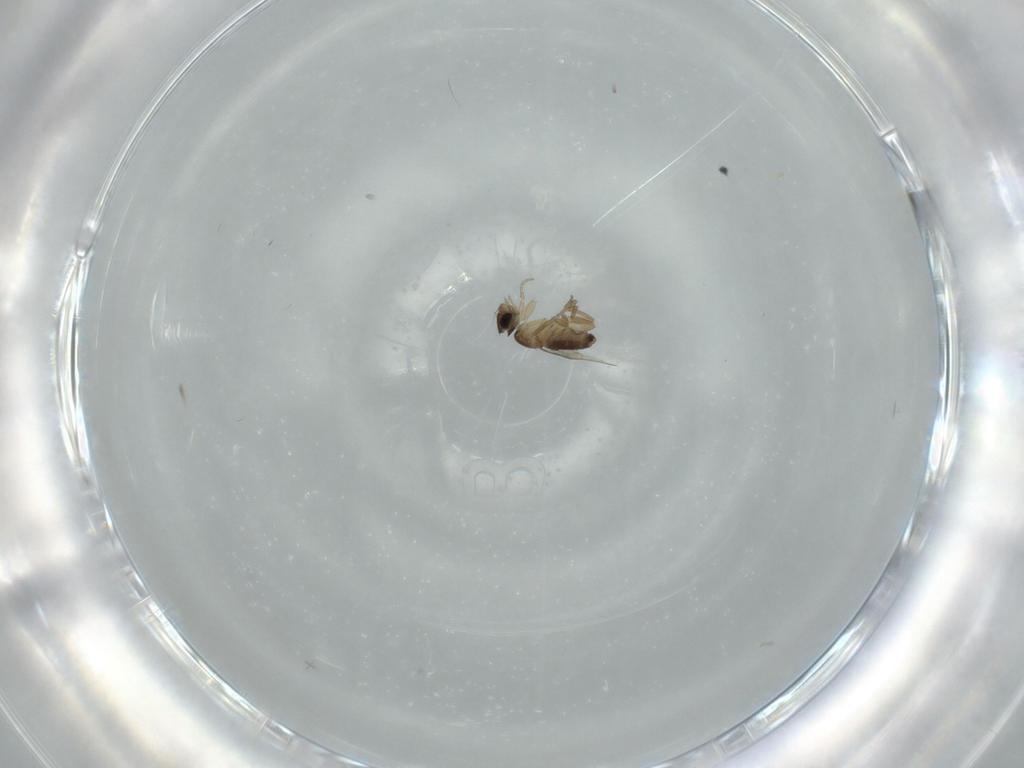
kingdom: Animalia
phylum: Arthropoda
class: Insecta
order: Diptera
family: Phoridae
